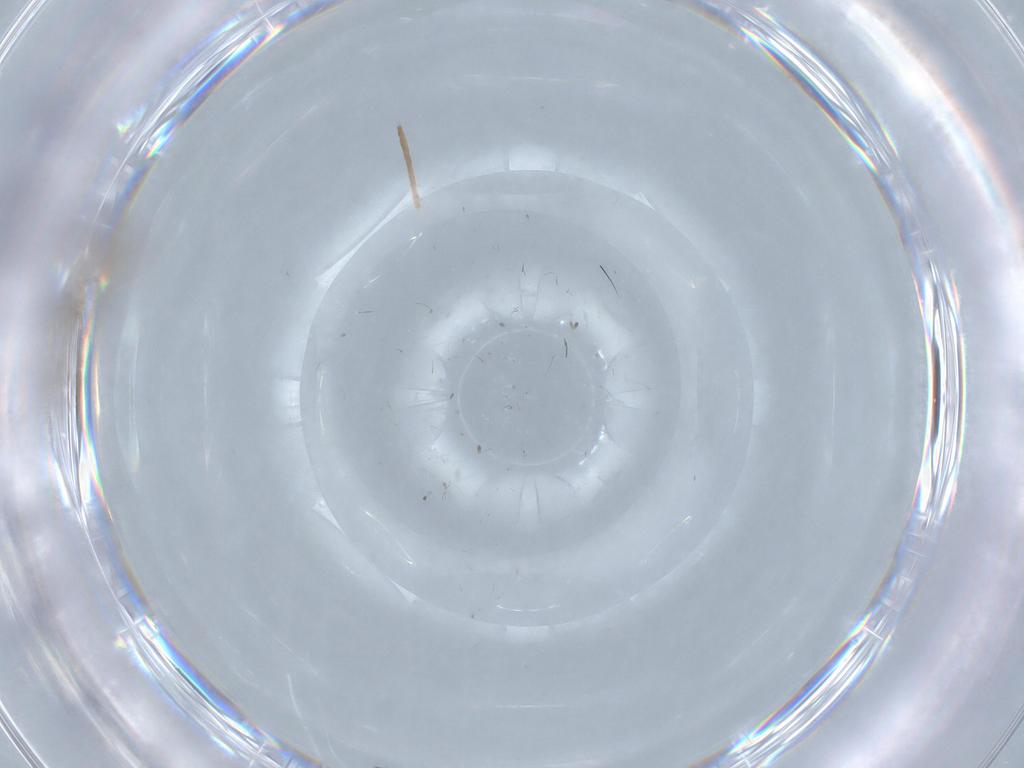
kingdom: Animalia
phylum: Arthropoda
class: Insecta
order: Diptera
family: Chironomidae
